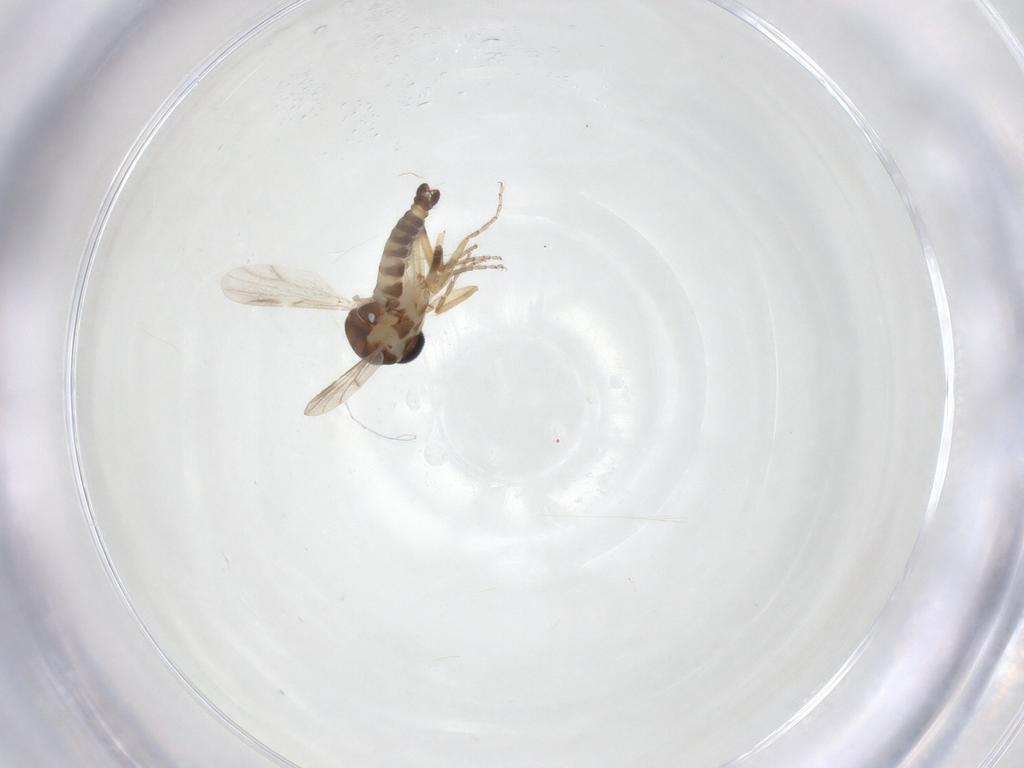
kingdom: Animalia
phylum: Arthropoda
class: Insecta
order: Diptera
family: Ceratopogonidae
